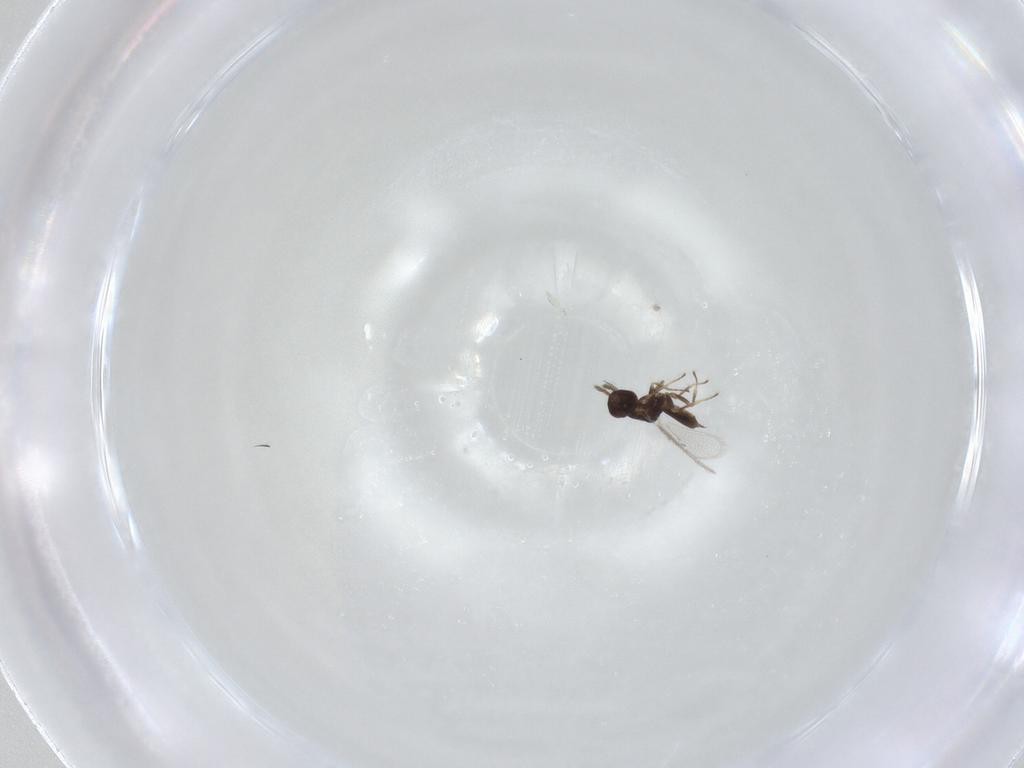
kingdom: Animalia
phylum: Arthropoda
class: Insecta
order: Hymenoptera
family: Eulophidae
